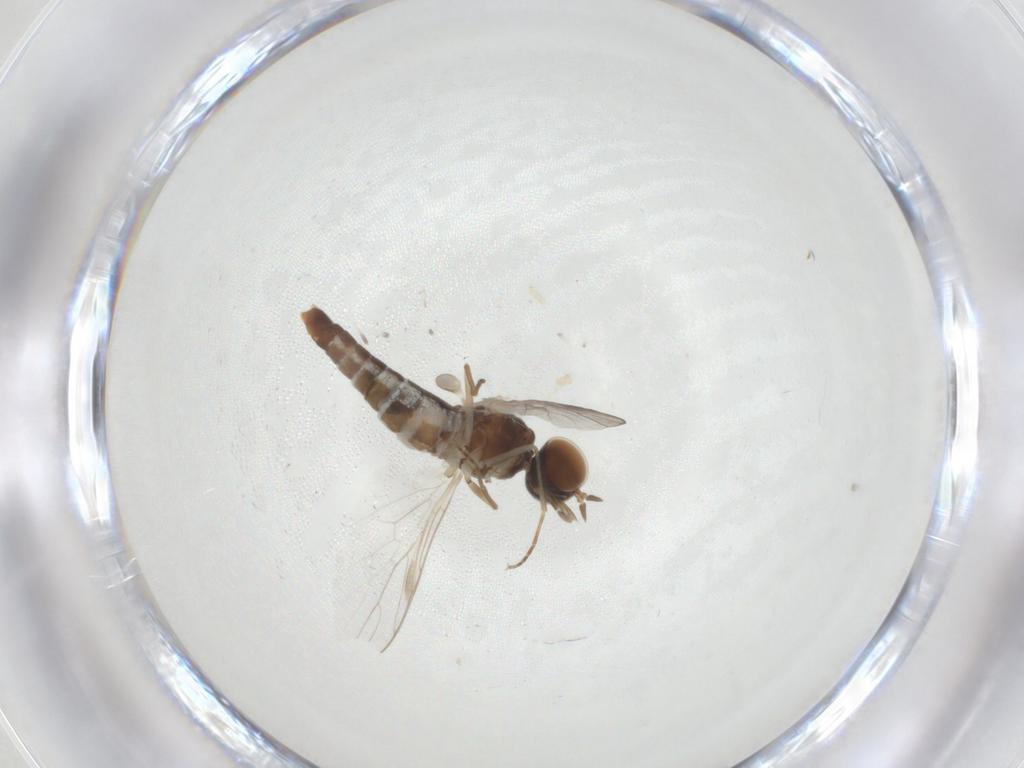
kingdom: Animalia
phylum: Arthropoda
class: Insecta
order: Diptera
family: Scenopinidae
